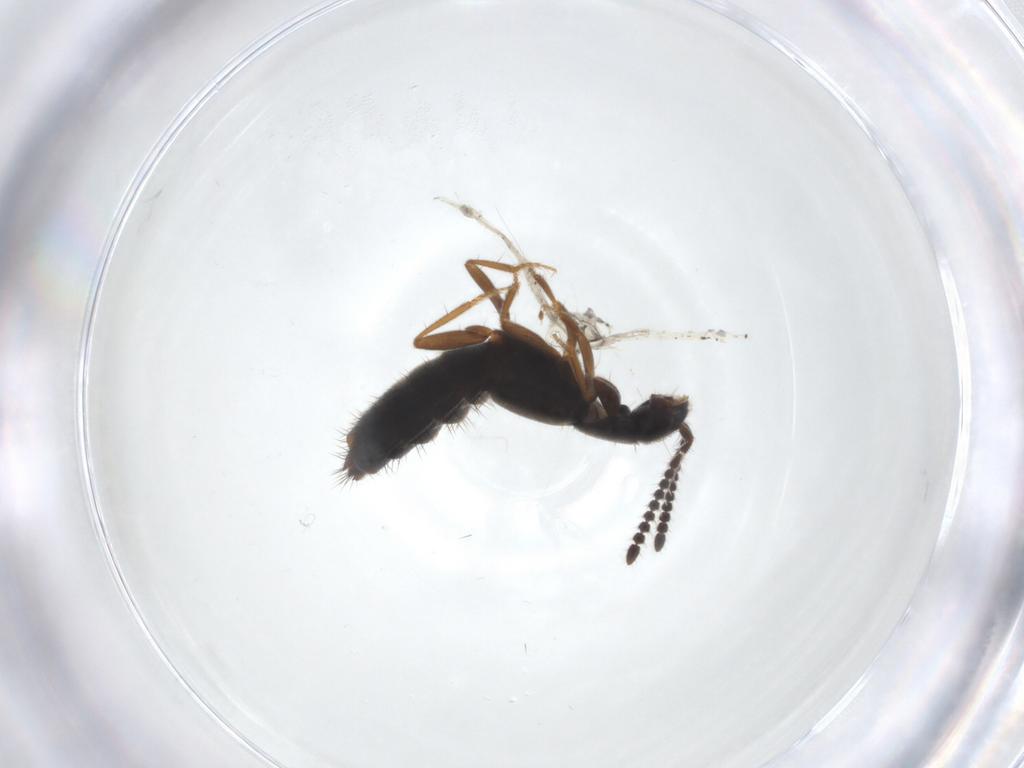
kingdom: Animalia
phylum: Arthropoda
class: Insecta
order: Coleoptera
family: Coccinellidae
